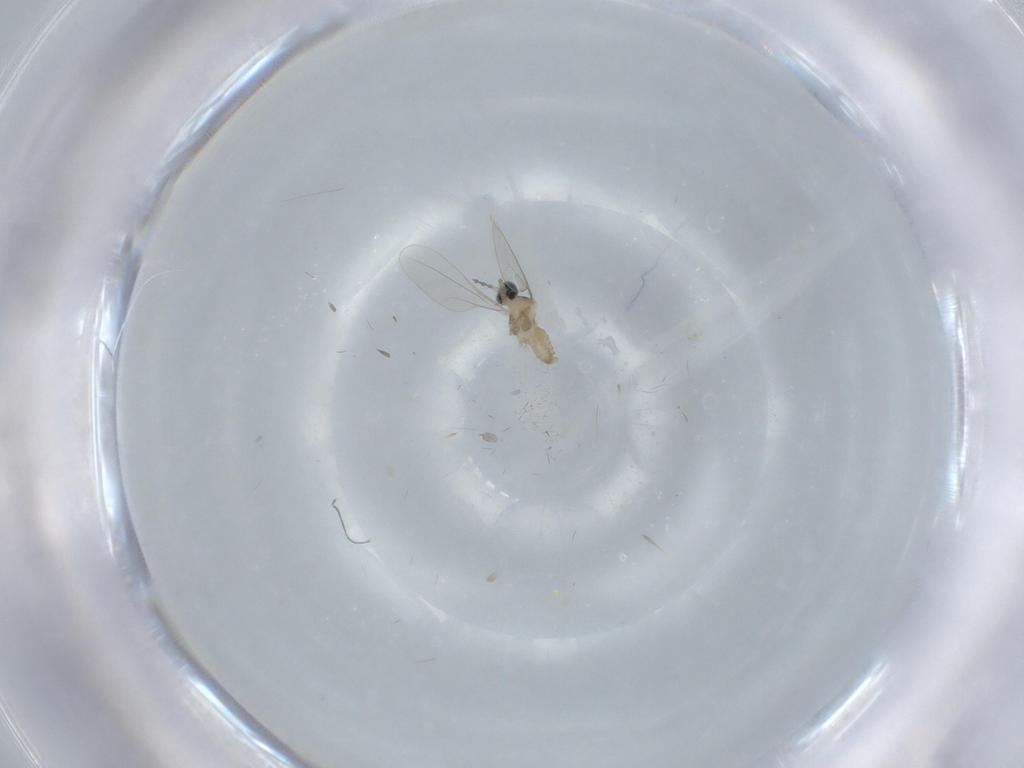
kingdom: Animalia
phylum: Arthropoda
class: Insecta
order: Diptera
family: Cecidomyiidae
